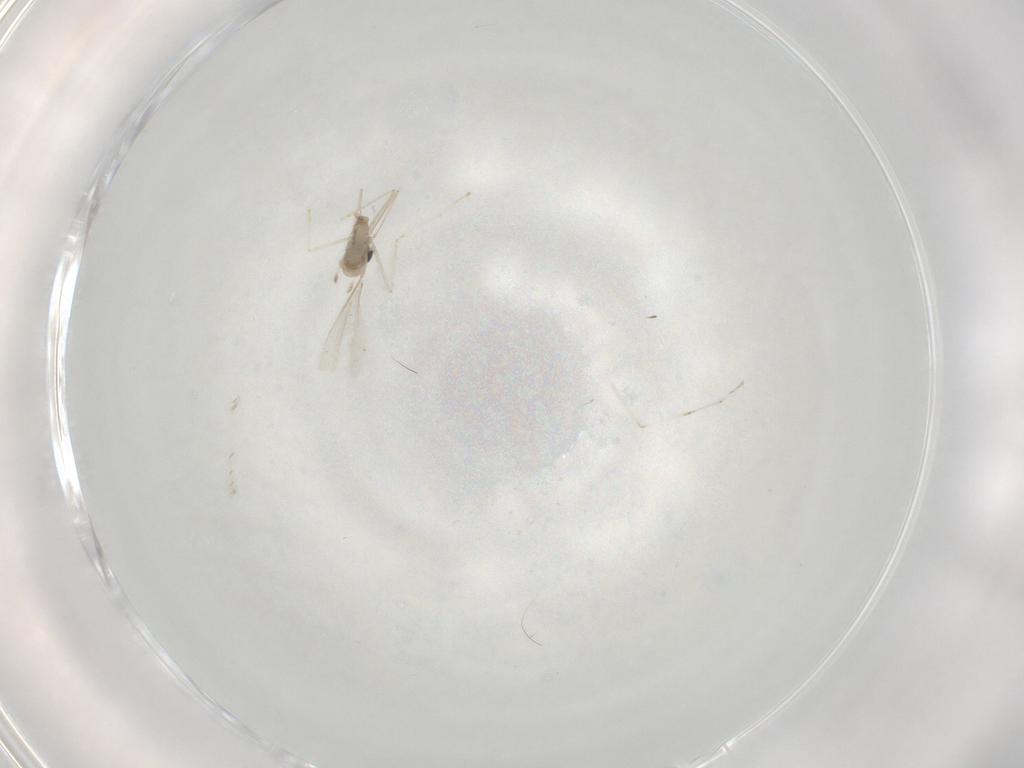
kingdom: Animalia
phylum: Arthropoda
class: Insecta
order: Diptera
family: Cecidomyiidae
